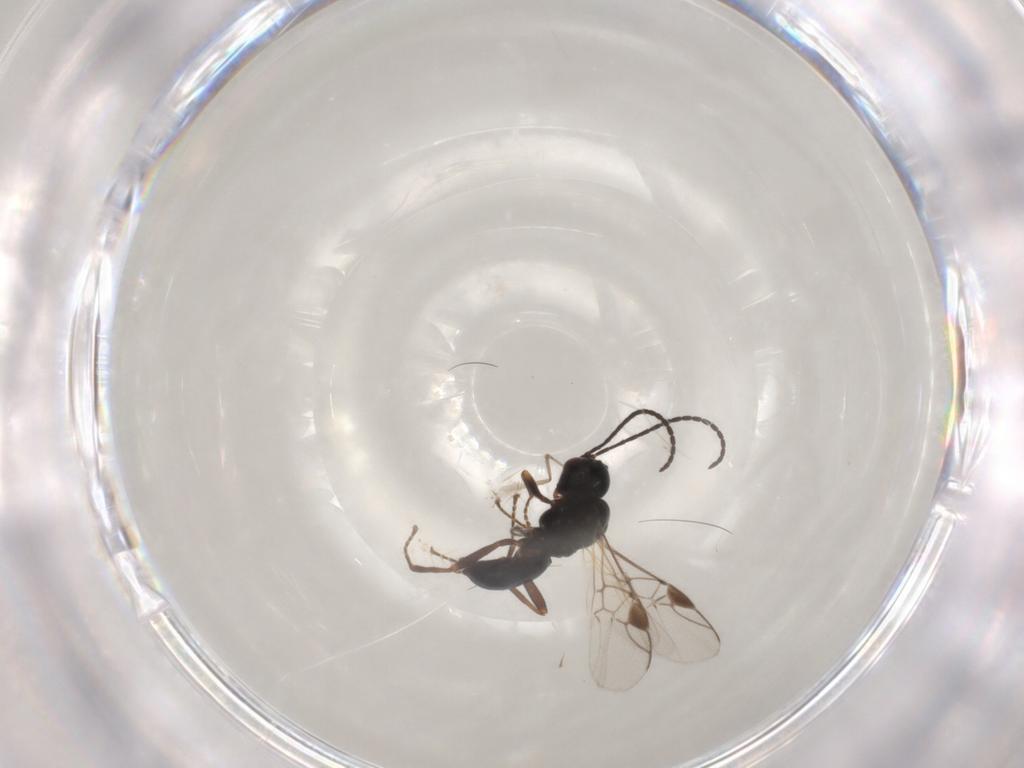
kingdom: Animalia
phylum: Arthropoda
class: Insecta
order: Hymenoptera
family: Braconidae
